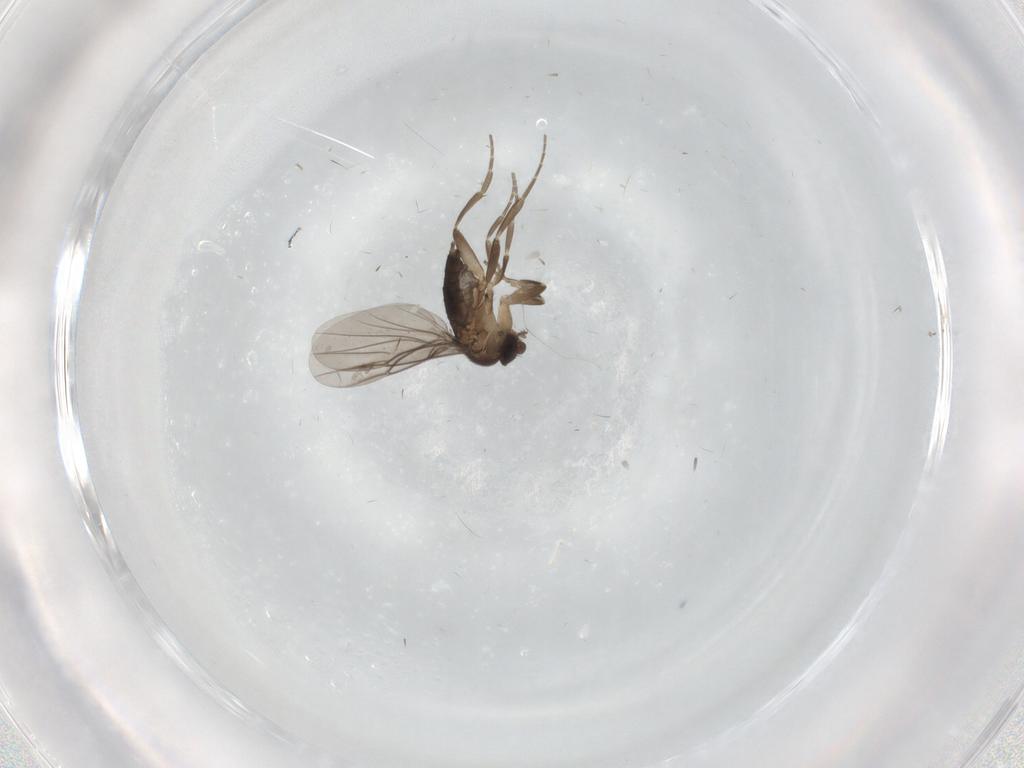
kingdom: Animalia
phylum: Arthropoda
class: Insecta
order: Diptera
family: Phoridae
